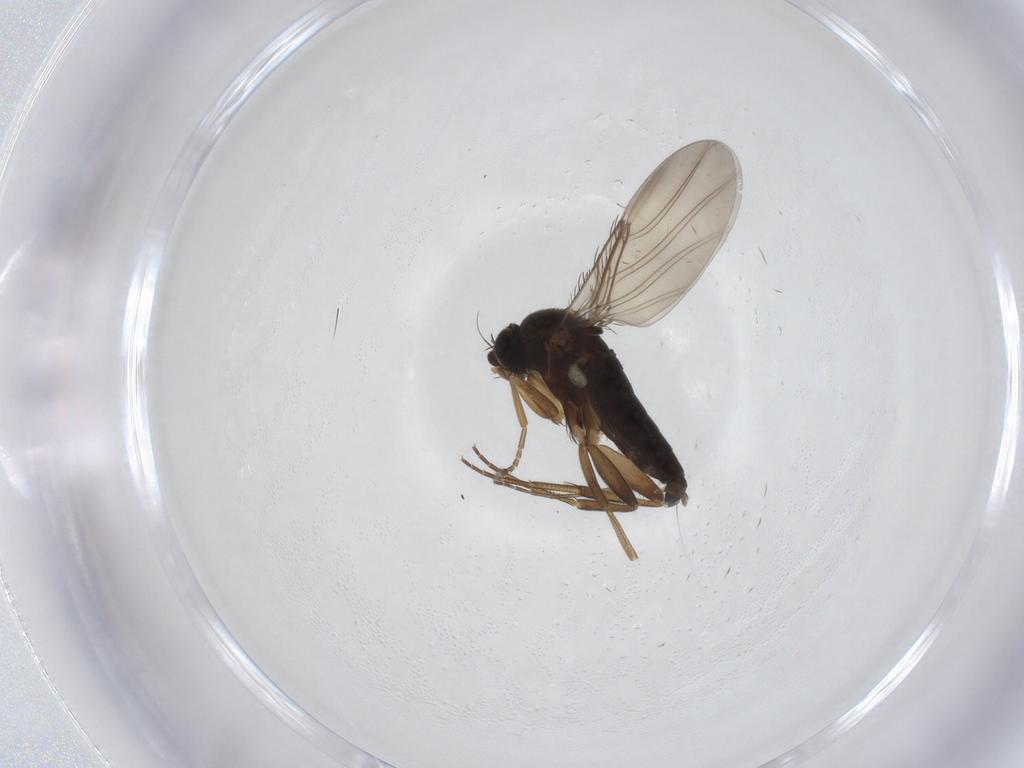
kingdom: Animalia
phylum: Arthropoda
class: Insecta
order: Diptera
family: Phoridae
